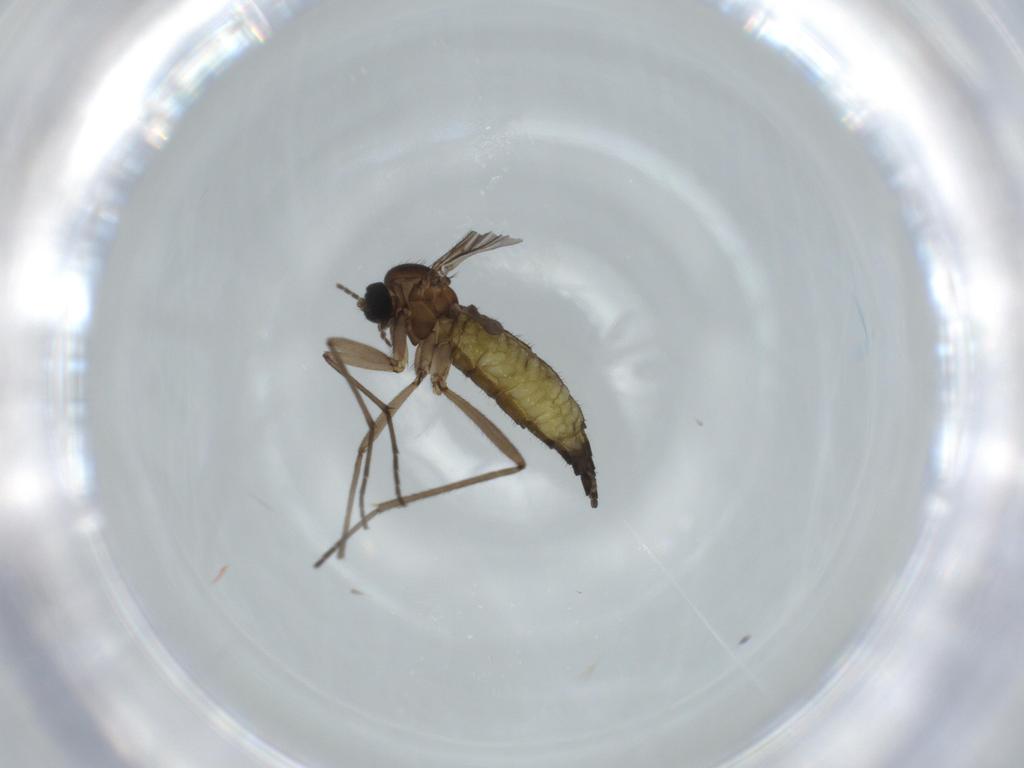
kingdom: Animalia
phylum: Arthropoda
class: Insecta
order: Diptera
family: Sciaridae
